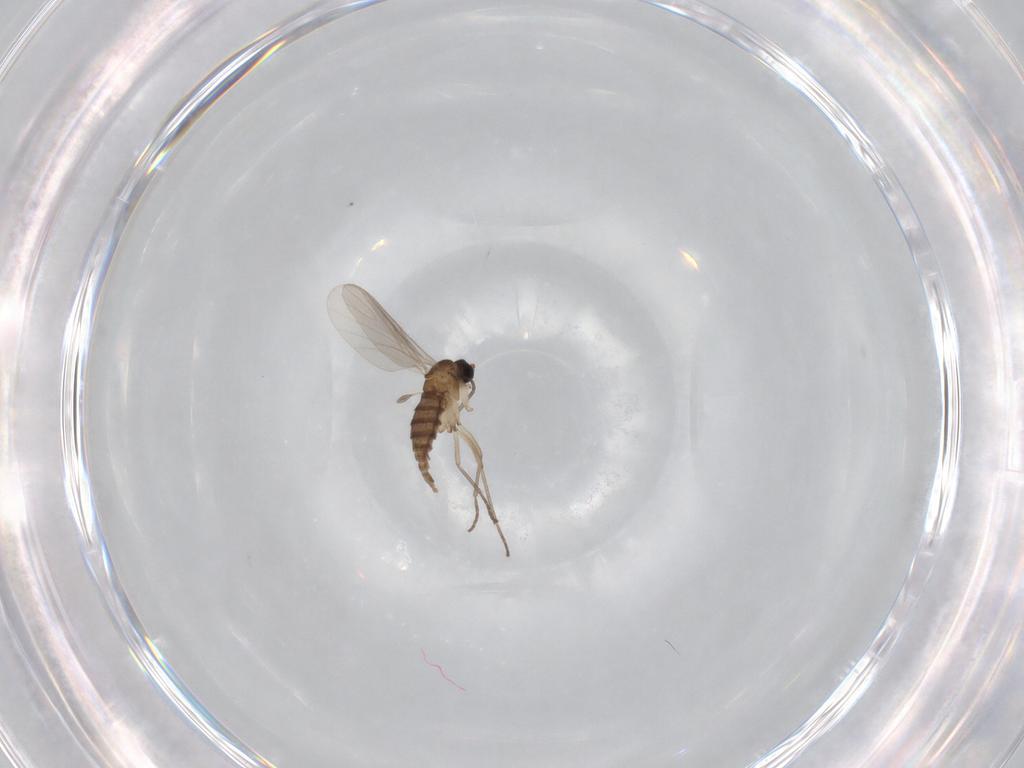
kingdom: Animalia
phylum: Arthropoda
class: Insecta
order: Diptera
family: Sciaridae
